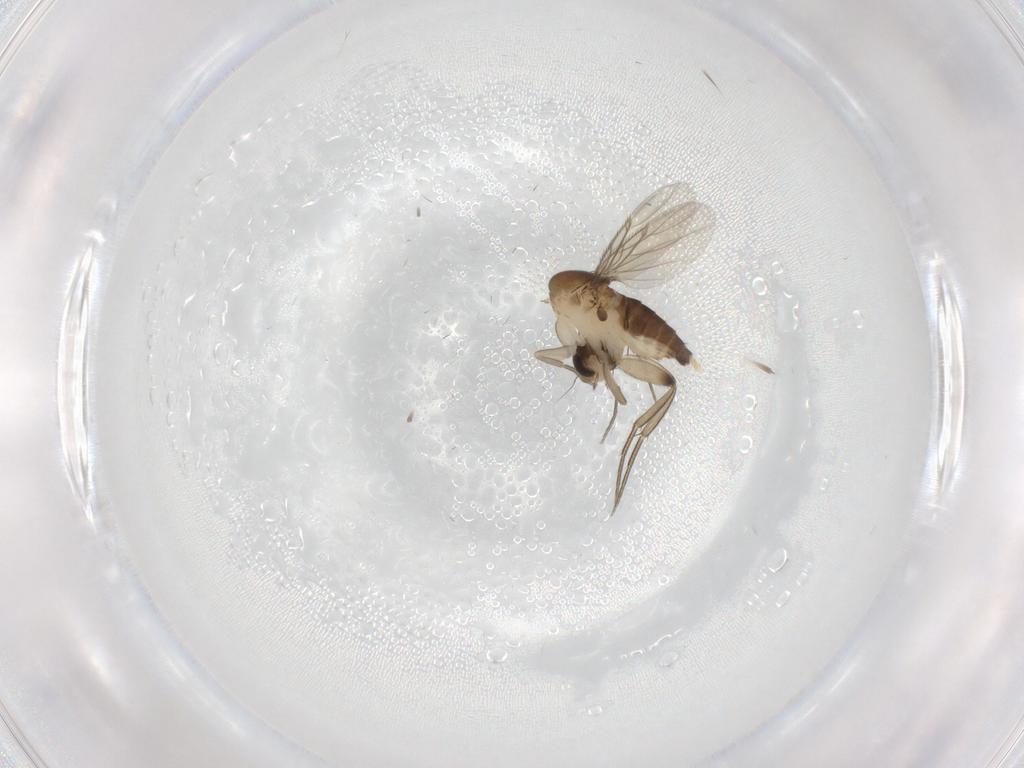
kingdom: Animalia
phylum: Arthropoda
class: Insecta
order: Diptera
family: Phoridae
